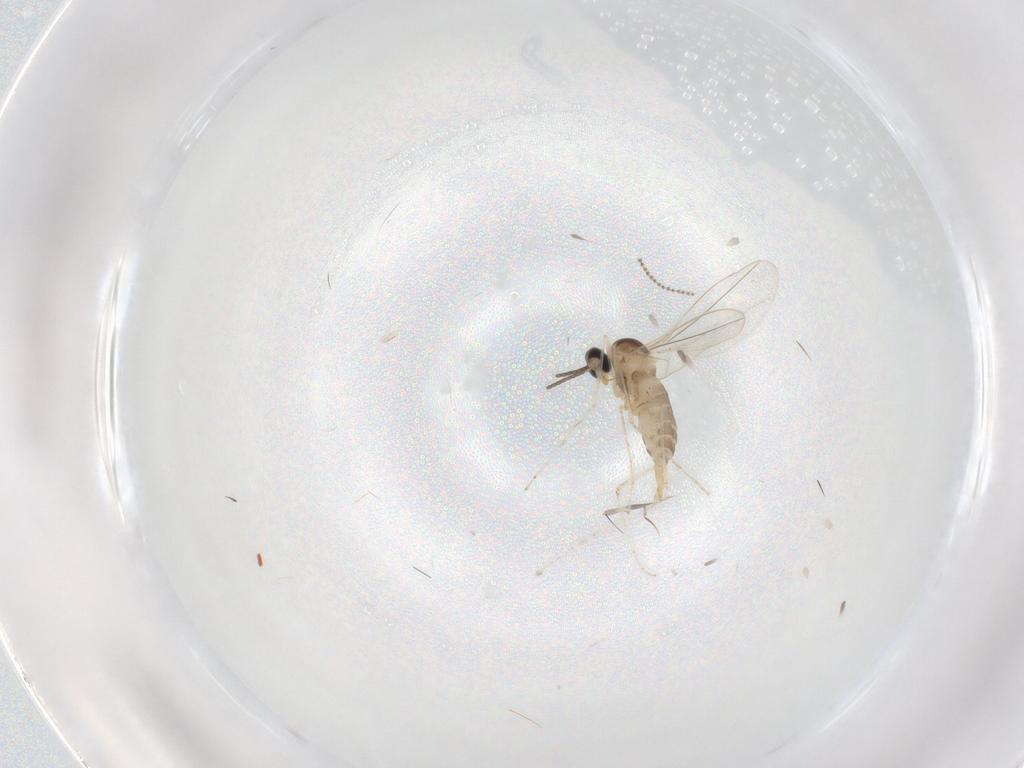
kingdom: Animalia
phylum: Arthropoda
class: Insecta
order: Diptera
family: Cecidomyiidae
